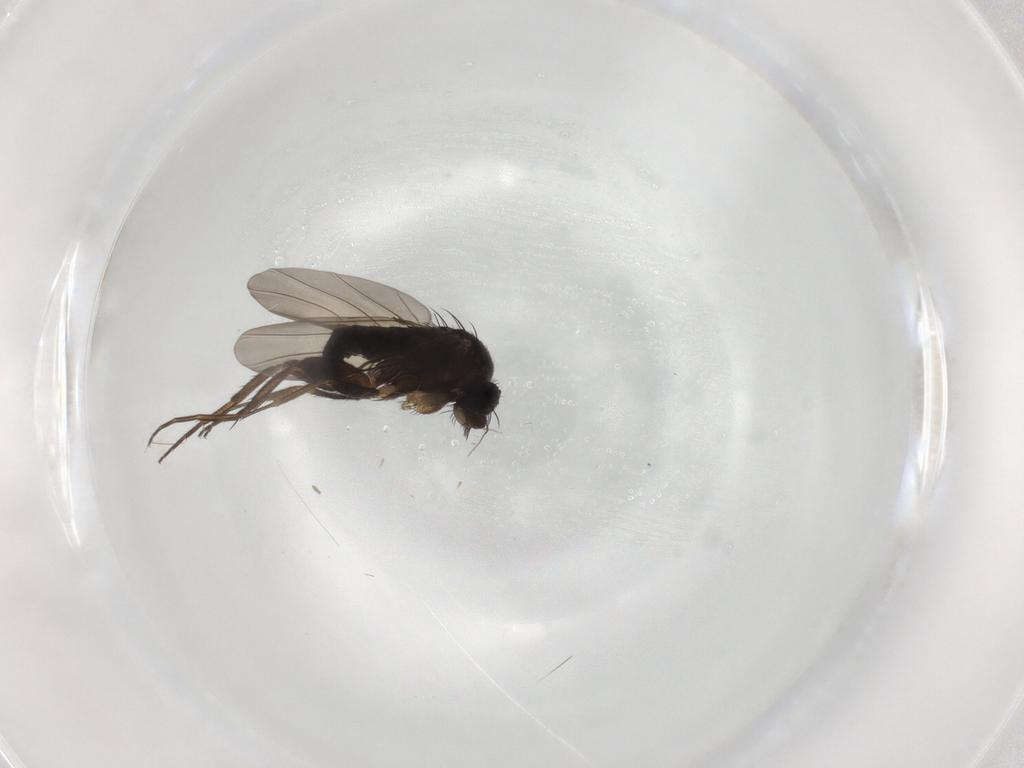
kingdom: Animalia
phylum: Arthropoda
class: Insecta
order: Diptera
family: Phoridae
